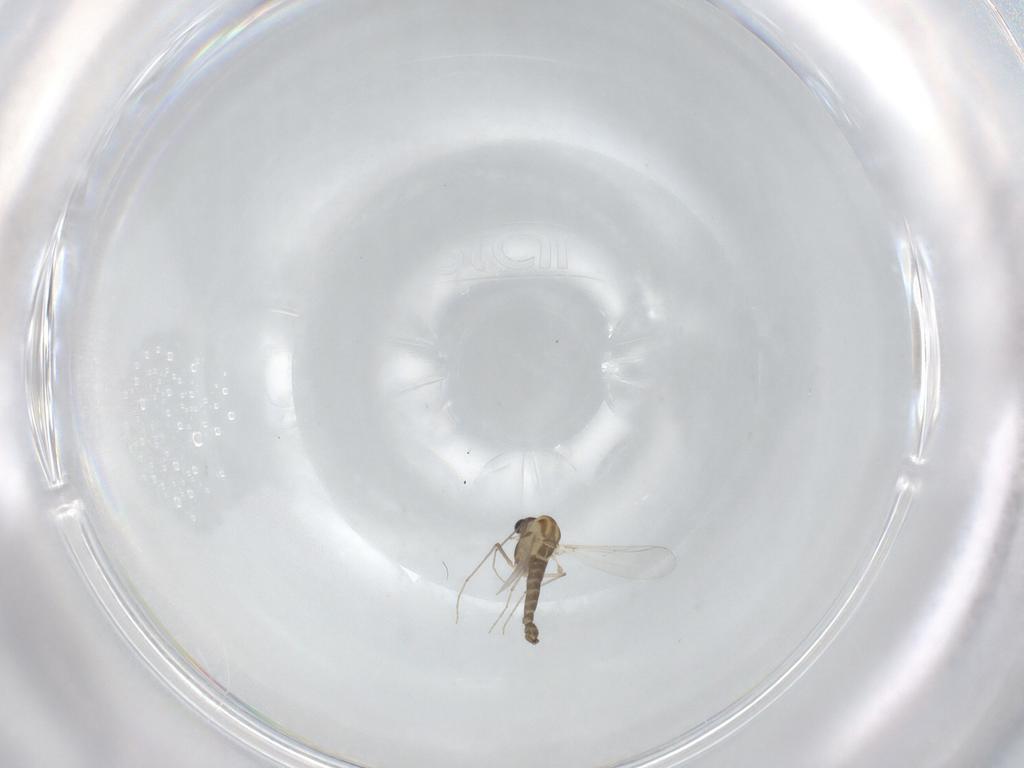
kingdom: Animalia
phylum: Arthropoda
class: Insecta
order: Diptera
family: Chironomidae
